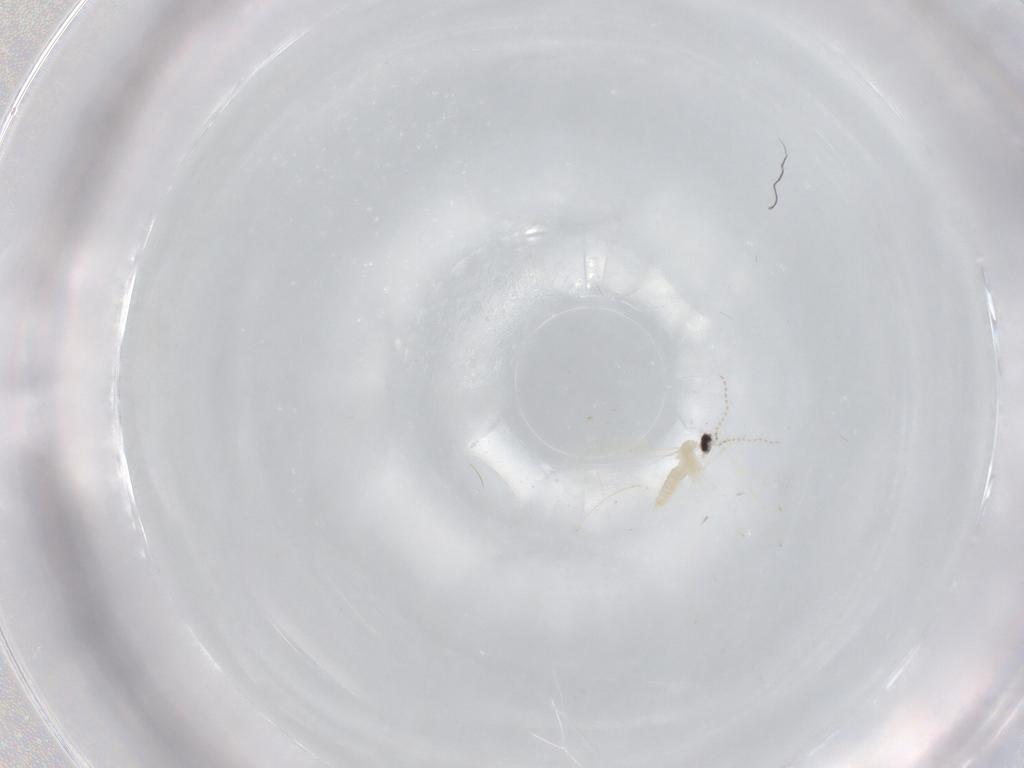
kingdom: Animalia
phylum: Arthropoda
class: Insecta
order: Diptera
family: Cecidomyiidae
